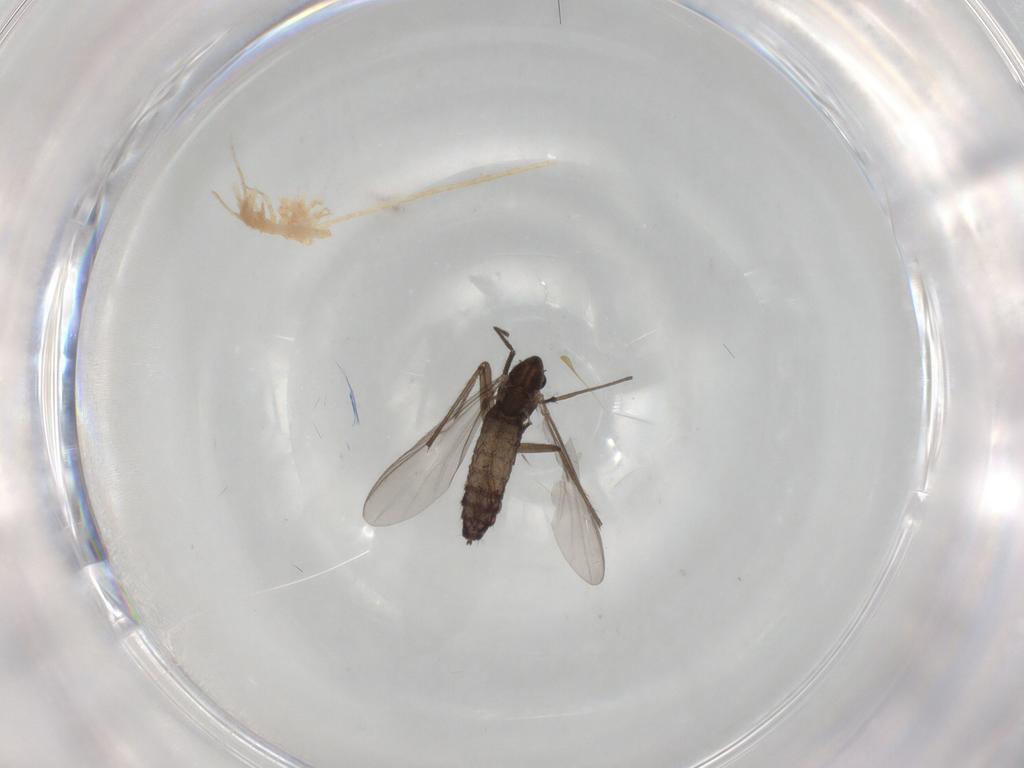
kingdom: Animalia
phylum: Arthropoda
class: Insecta
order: Diptera
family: Chironomidae
